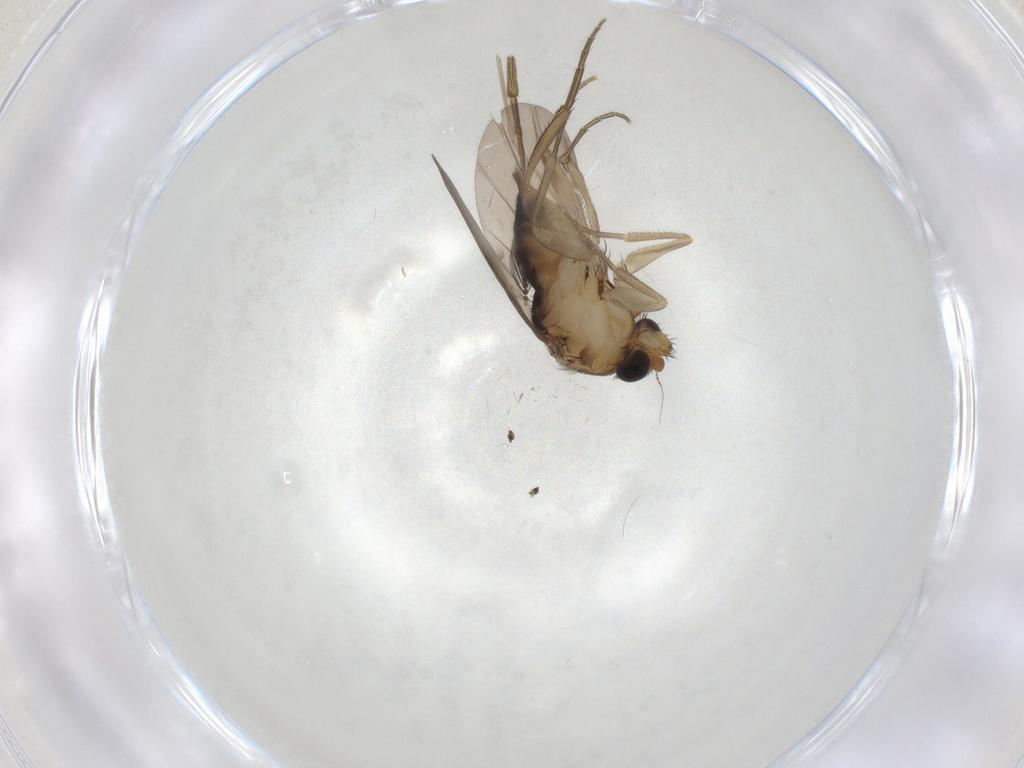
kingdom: Animalia
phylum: Arthropoda
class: Insecta
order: Diptera
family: Phoridae
